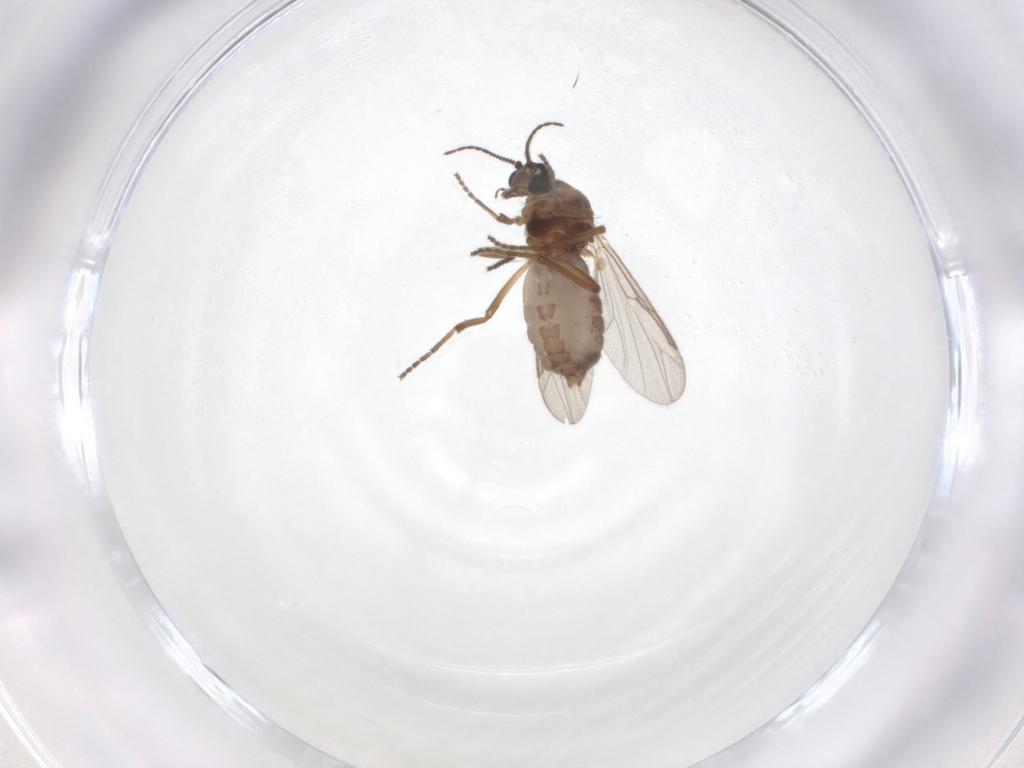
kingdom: Animalia
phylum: Arthropoda
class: Insecta
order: Diptera
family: Ceratopogonidae
